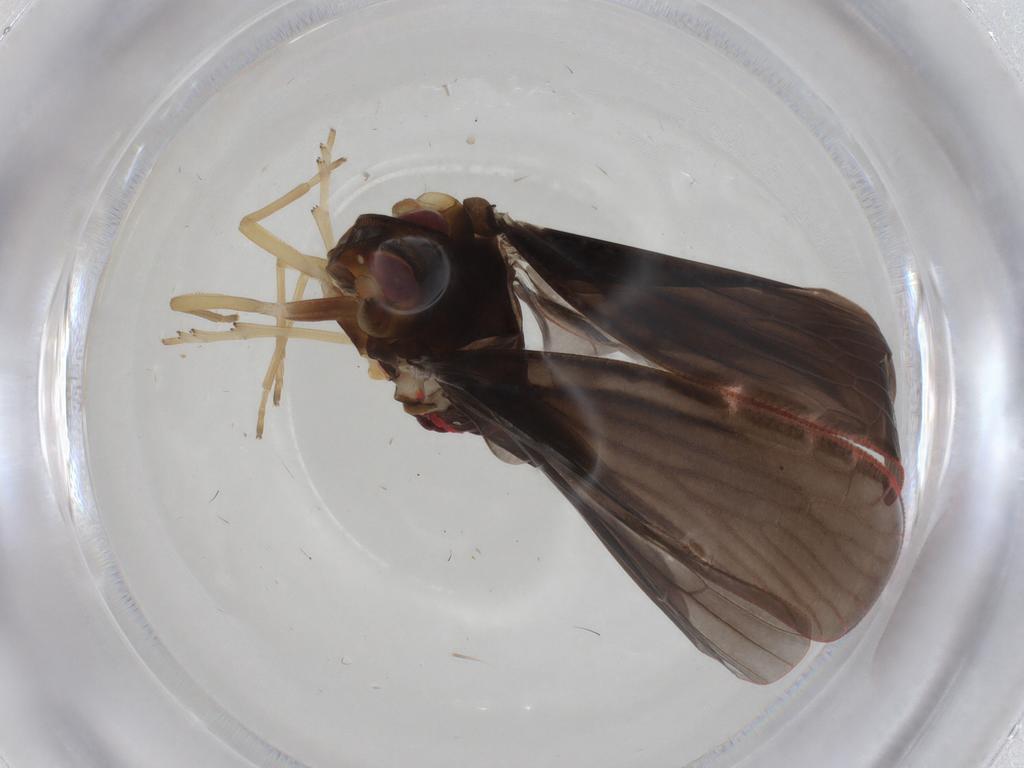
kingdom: Animalia
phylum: Arthropoda
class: Insecta
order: Hemiptera
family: Derbidae
